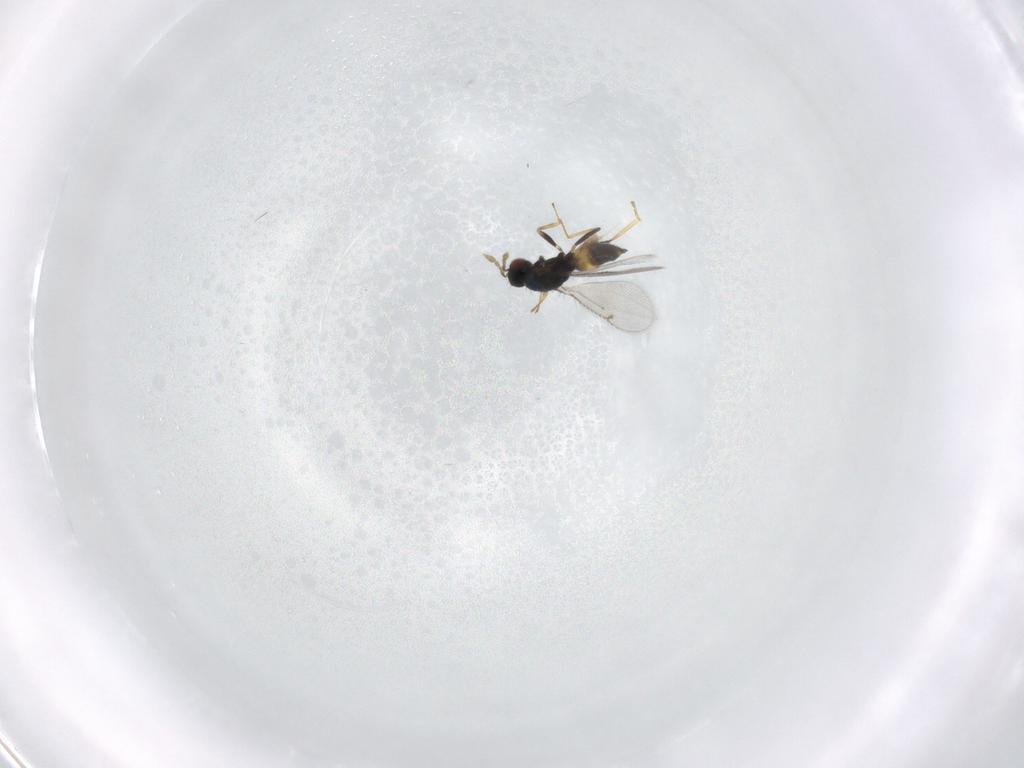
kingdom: Animalia
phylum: Arthropoda
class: Insecta
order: Hymenoptera
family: Eulophidae
